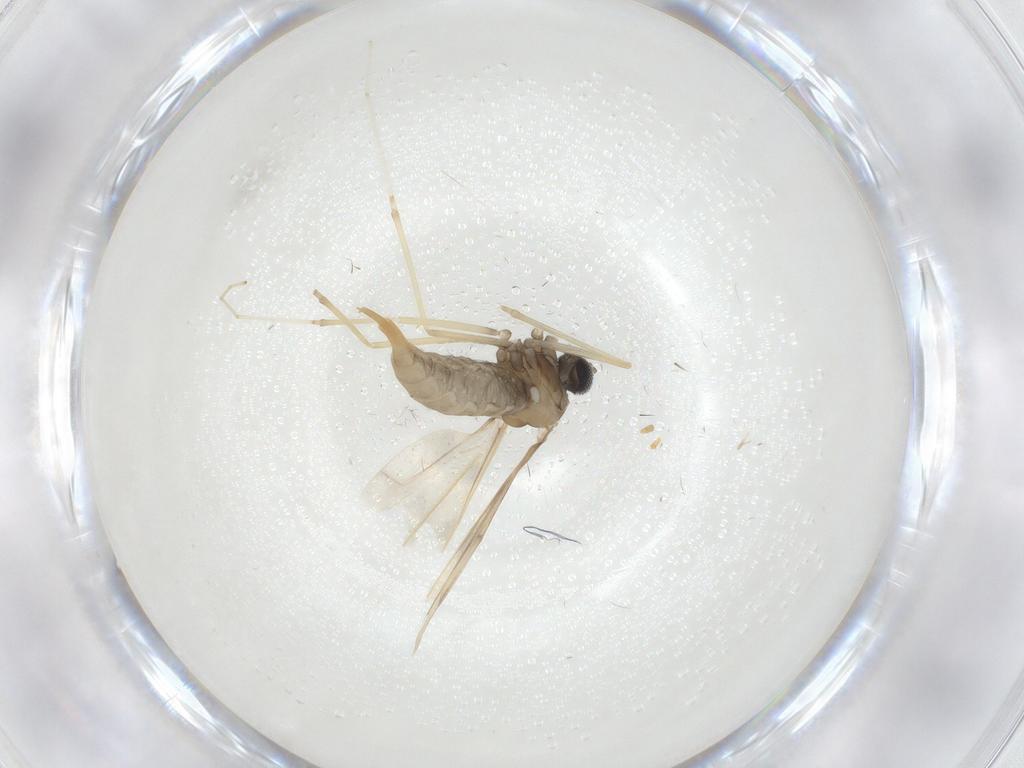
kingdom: Animalia
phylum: Arthropoda
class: Insecta
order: Diptera
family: Cecidomyiidae
